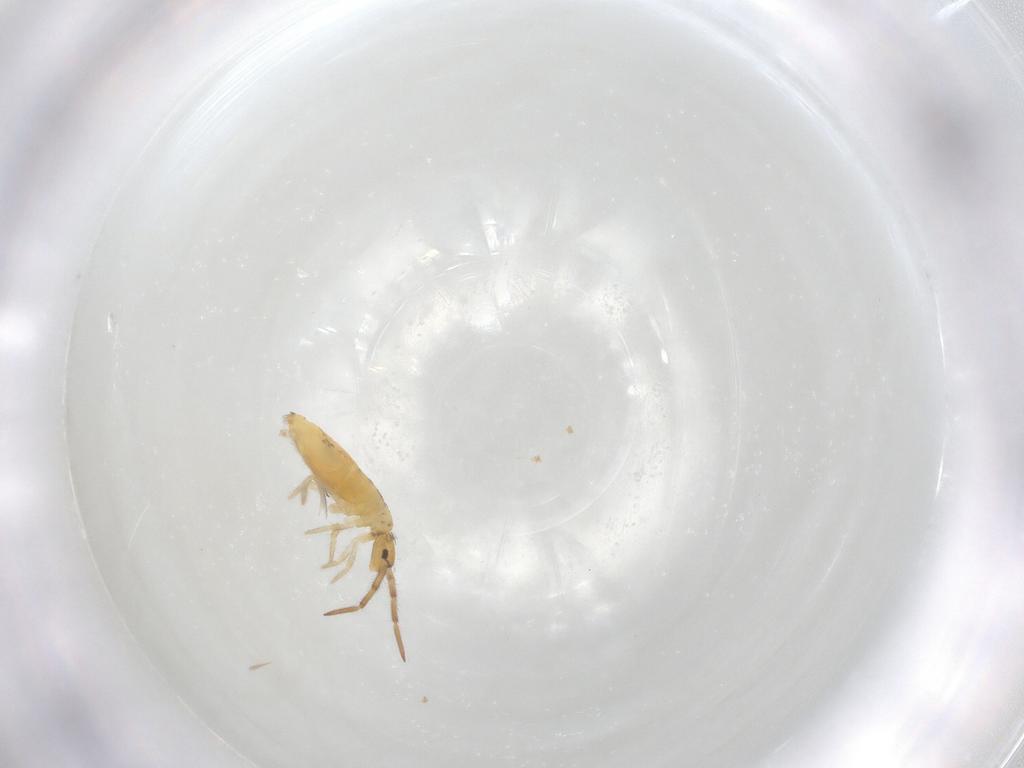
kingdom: Animalia
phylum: Arthropoda
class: Collembola
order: Entomobryomorpha
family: Entomobryidae
